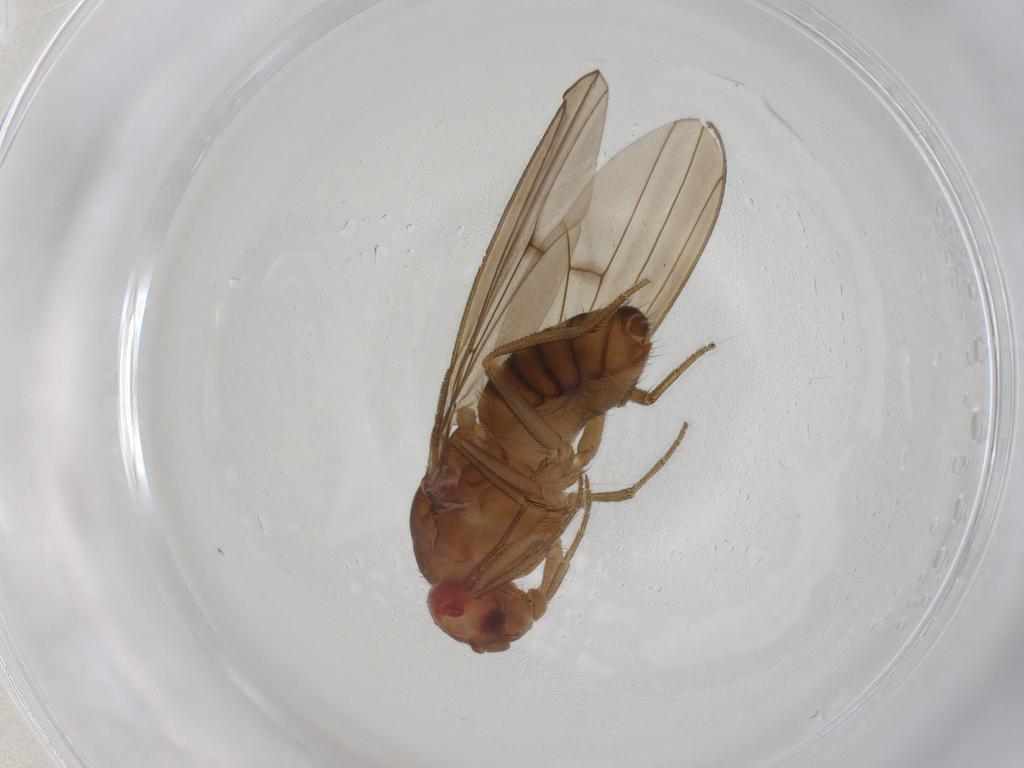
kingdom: Animalia
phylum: Arthropoda
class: Insecta
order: Diptera
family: Drosophilidae
